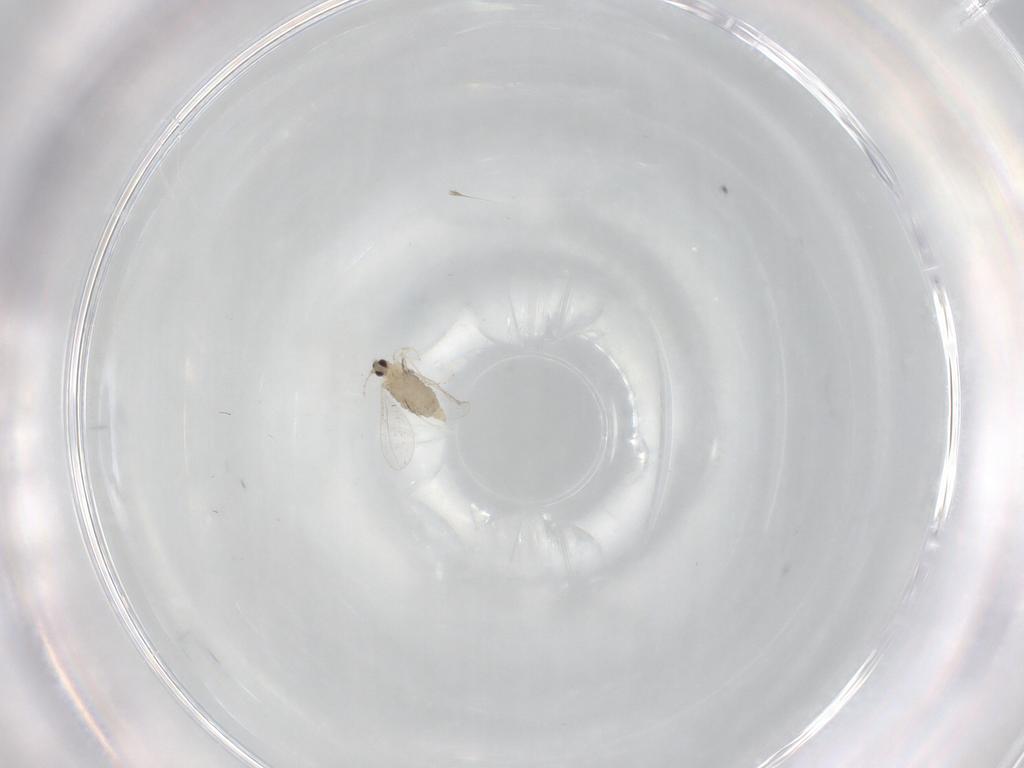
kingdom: Animalia
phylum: Arthropoda
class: Insecta
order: Diptera
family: Cecidomyiidae
